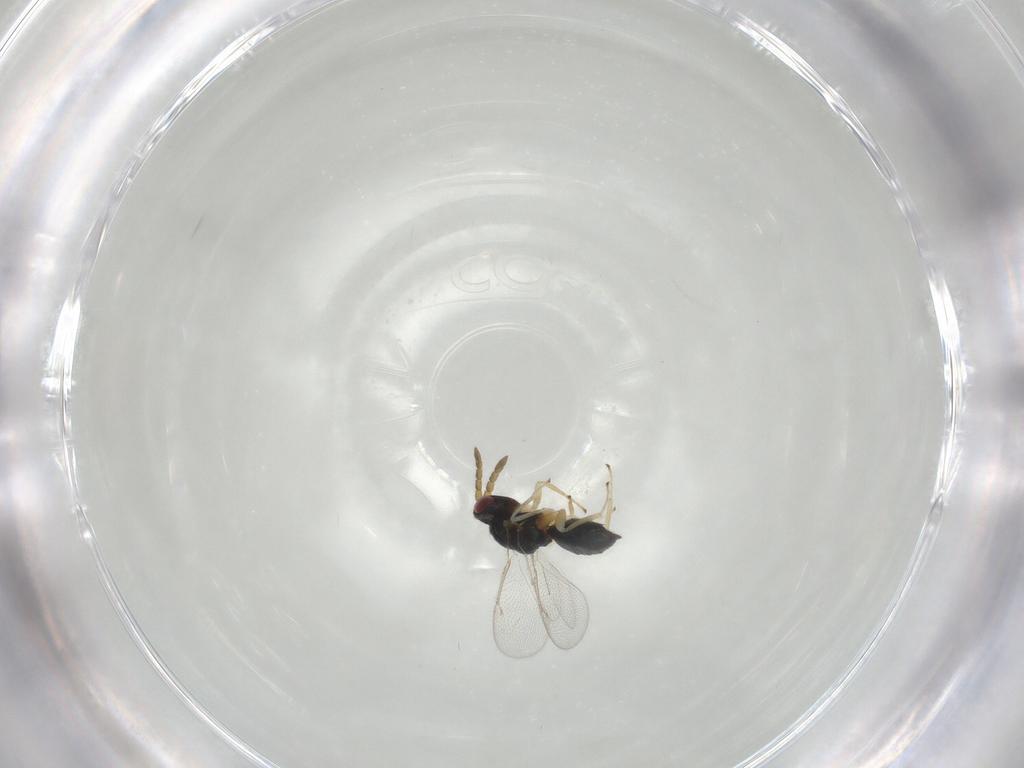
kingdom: Animalia
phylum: Arthropoda
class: Insecta
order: Hymenoptera
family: Eulophidae
